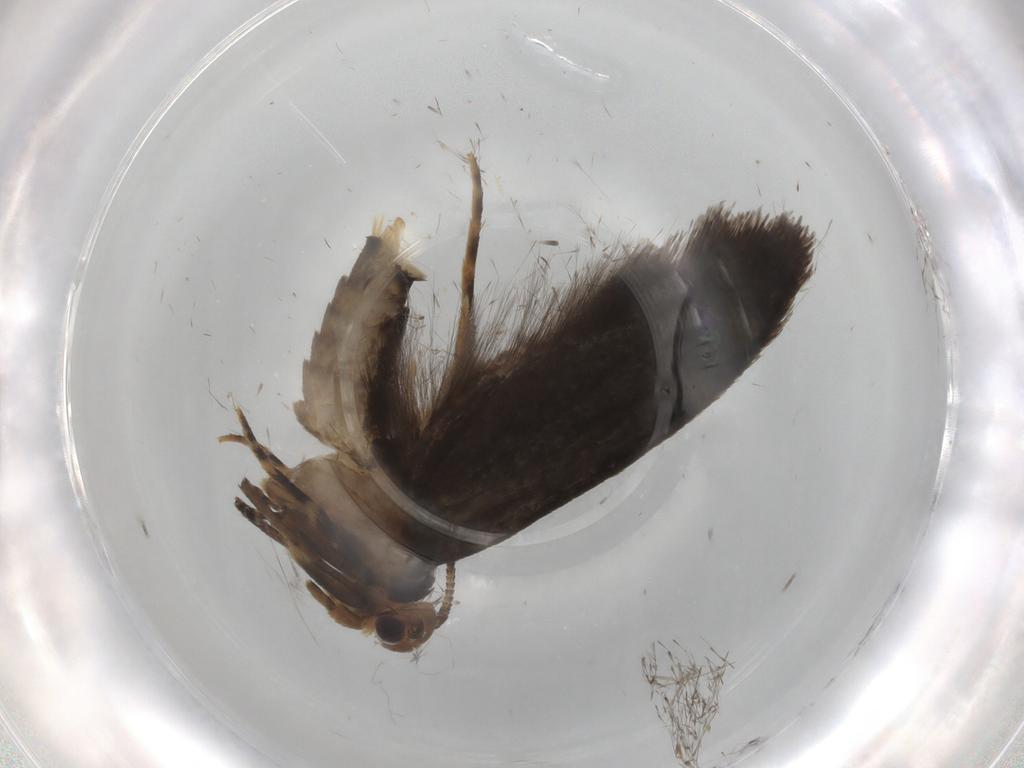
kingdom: Animalia
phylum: Arthropoda
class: Insecta
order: Lepidoptera
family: Tineidae
